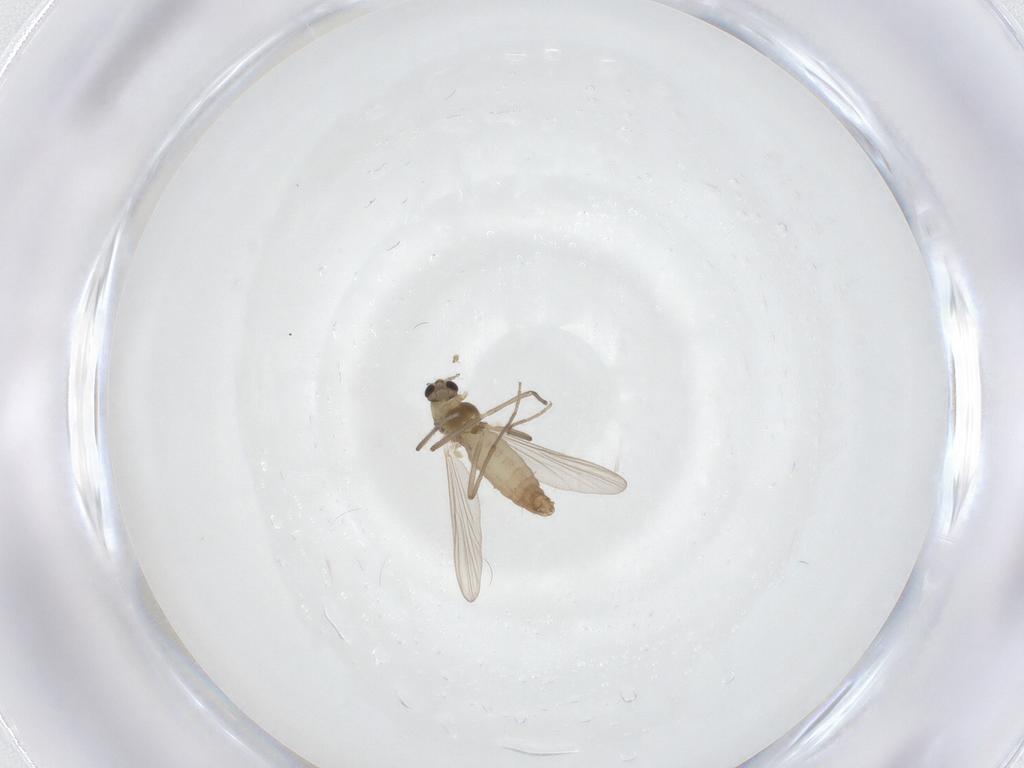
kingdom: Animalia
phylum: Arthropoda
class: Insecta
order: Diptera
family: Chironomidae
